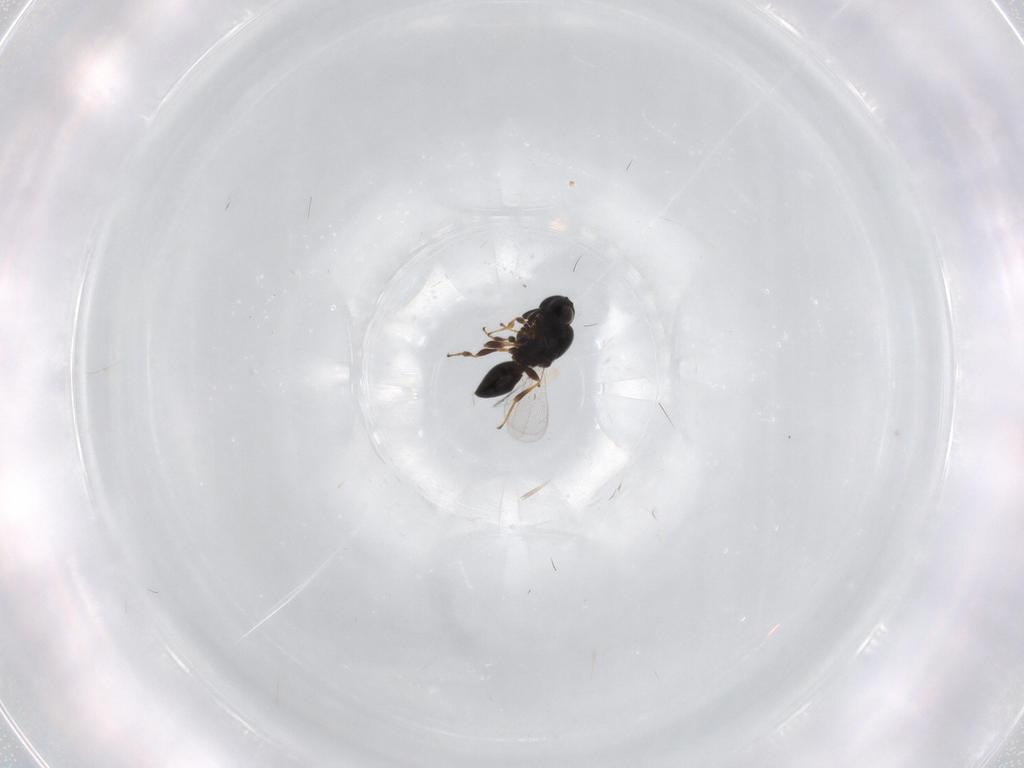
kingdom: Animalia
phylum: Arthropoda
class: Insecta
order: Hymenoptera
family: Platygastridae
